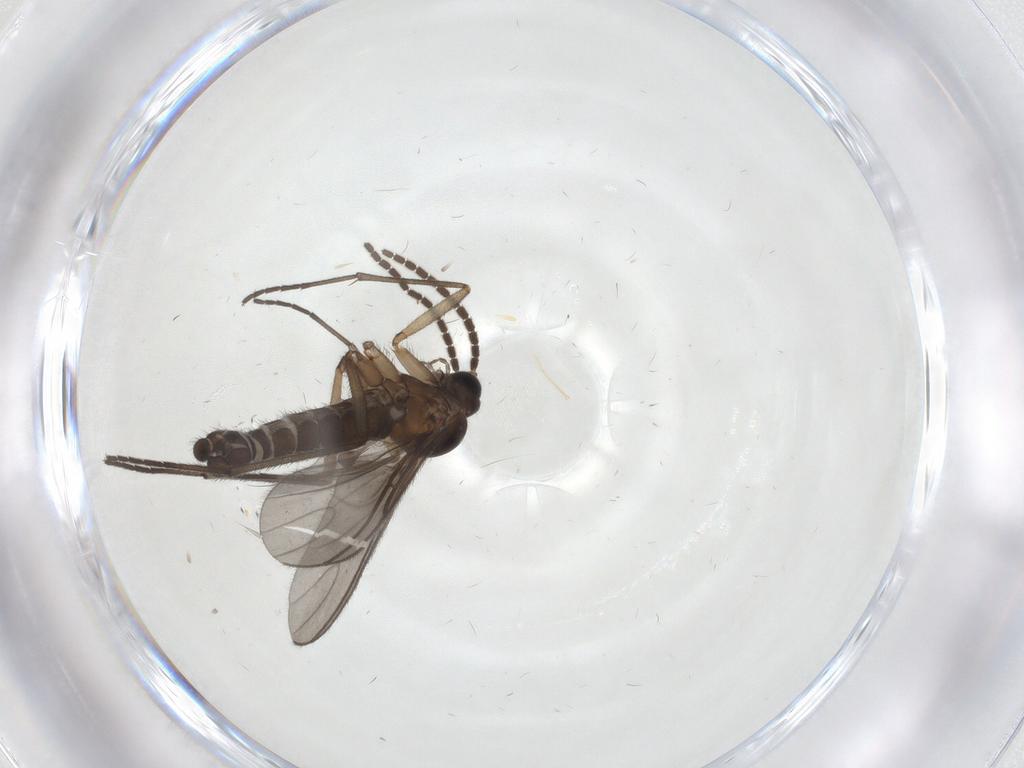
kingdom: Animalia
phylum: Arthropoda
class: Insecta
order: Diptera
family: Sciaridae
